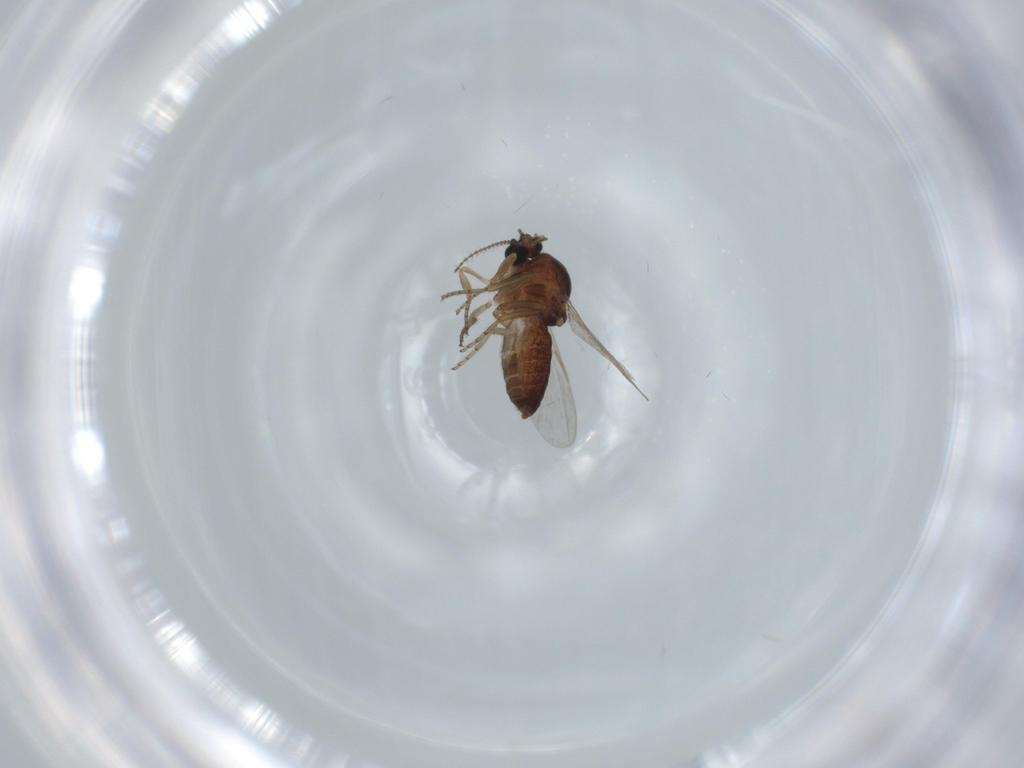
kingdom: Animalia
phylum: Arthropoda
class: Insecta
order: Diptera
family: Ceratopogonidae
